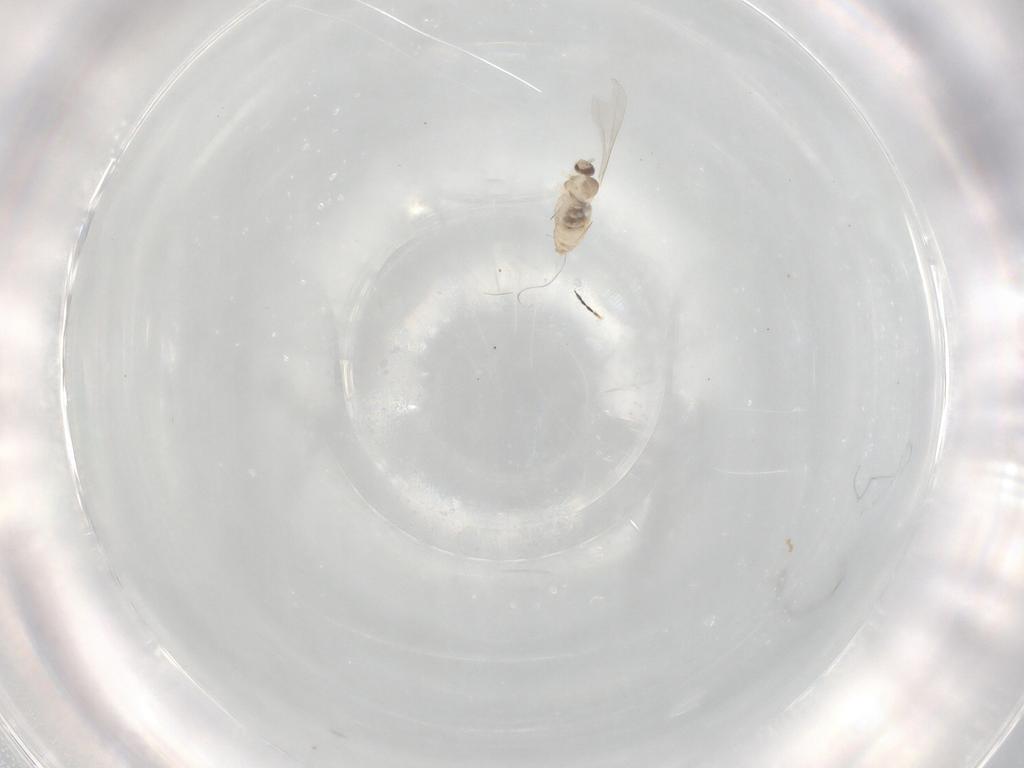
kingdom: Animalia
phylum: Arthropoda
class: Insecta
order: Diptera
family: Cecidomyiidae
